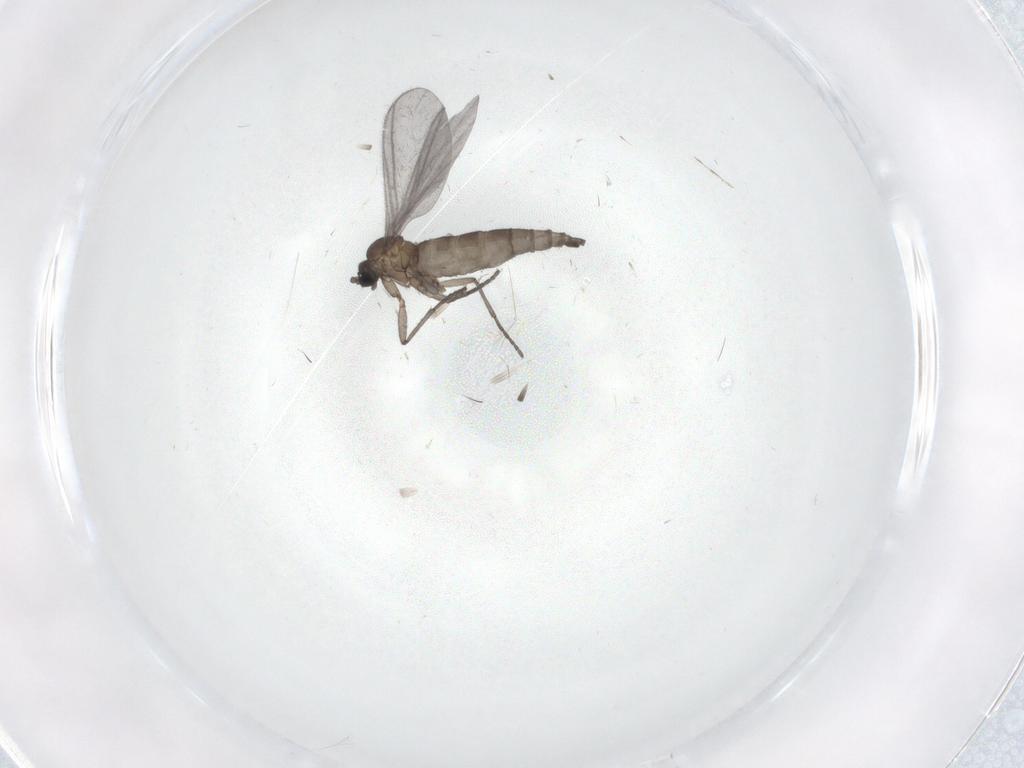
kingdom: Animalia
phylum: Arthropoda
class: Insecta
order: Diptera
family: Sciaridae
